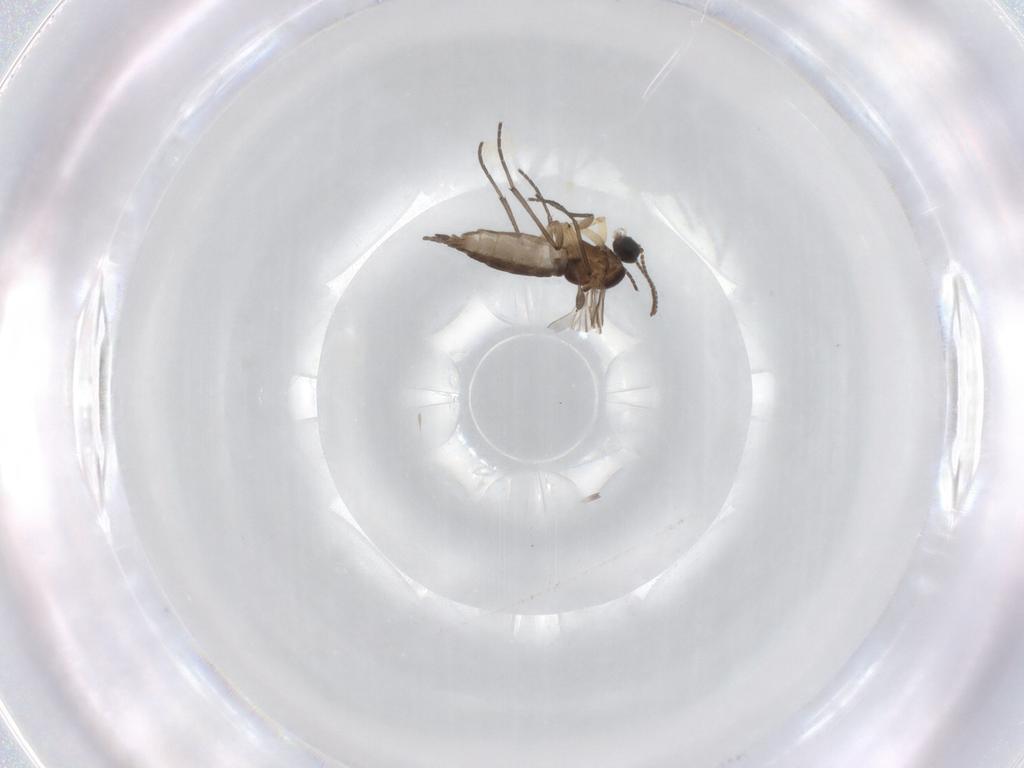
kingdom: Animalia
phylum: Arthropoda
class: Insecta
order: Diptera
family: Sciaridae
